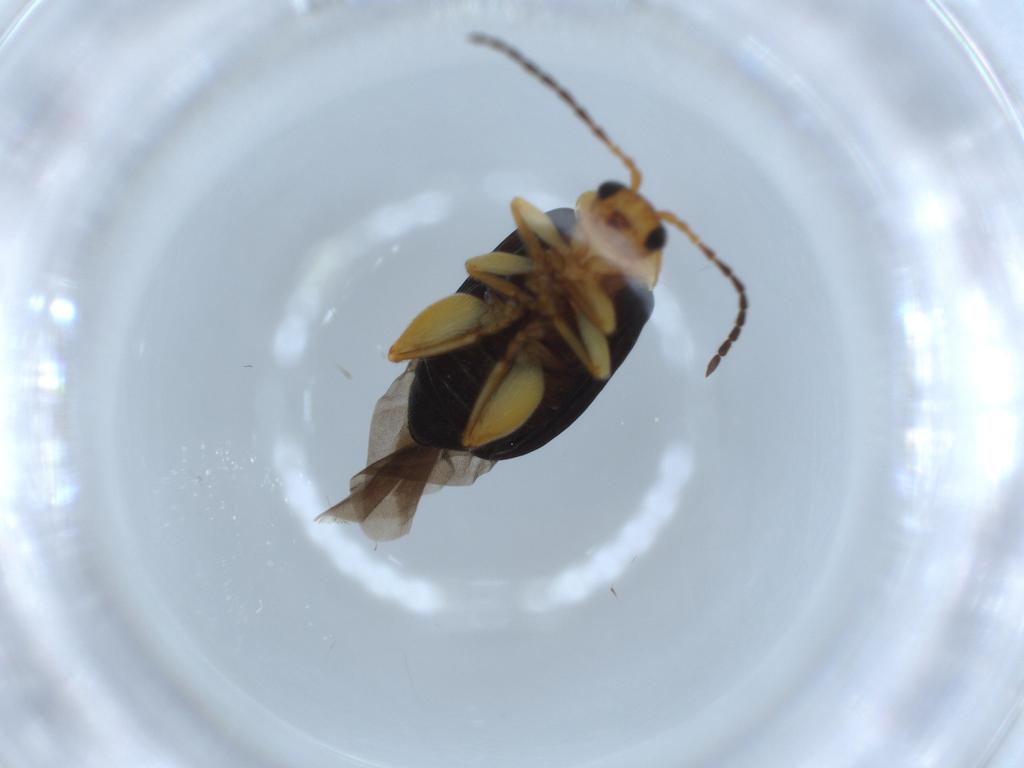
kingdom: Animalia
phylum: Arthropoda
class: Insecta
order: Coleoptera
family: Chrysomelidae
